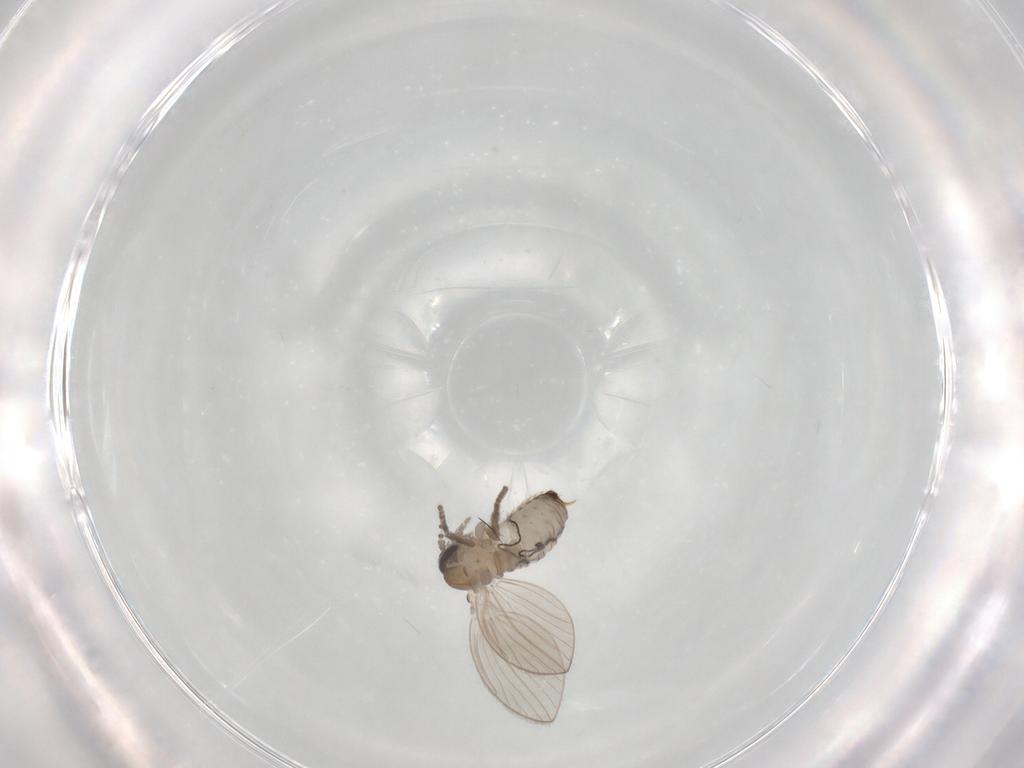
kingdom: Animalia
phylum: Arthropoda
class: Insecta
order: Diptera
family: Psychodidae
